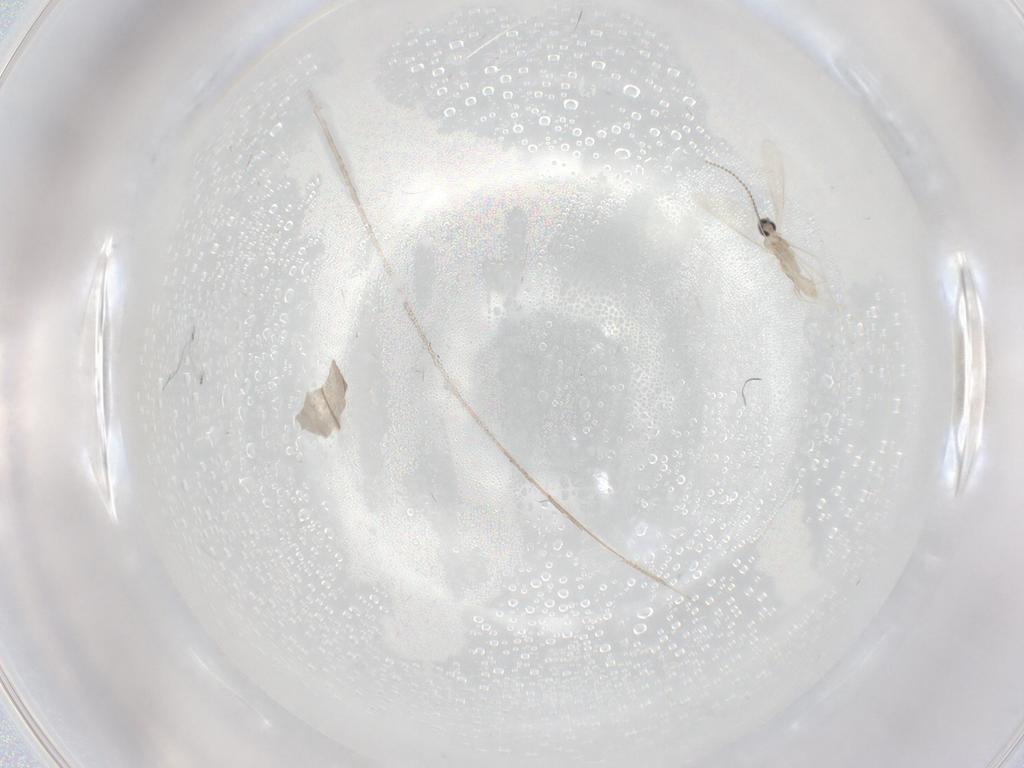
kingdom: Animalia
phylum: Arthropoda
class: Insecta
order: Diptera
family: Cecidomyiidae
